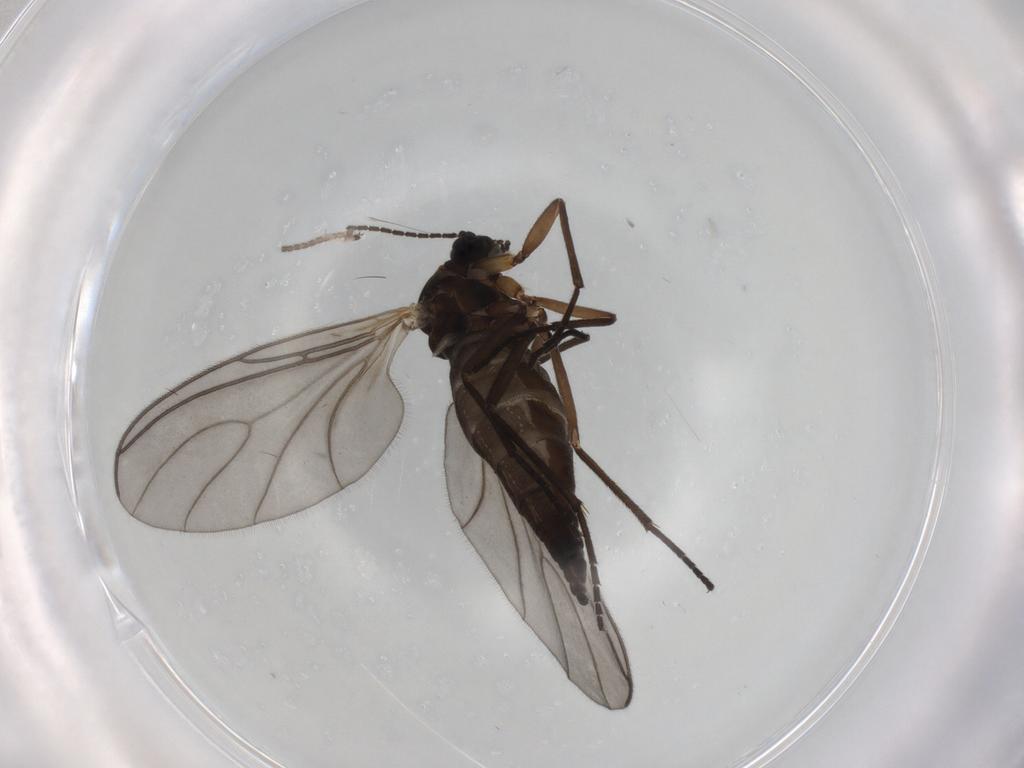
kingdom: Animalia
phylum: Arthropoda
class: Insecta
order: Diptera
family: Sciaridae
